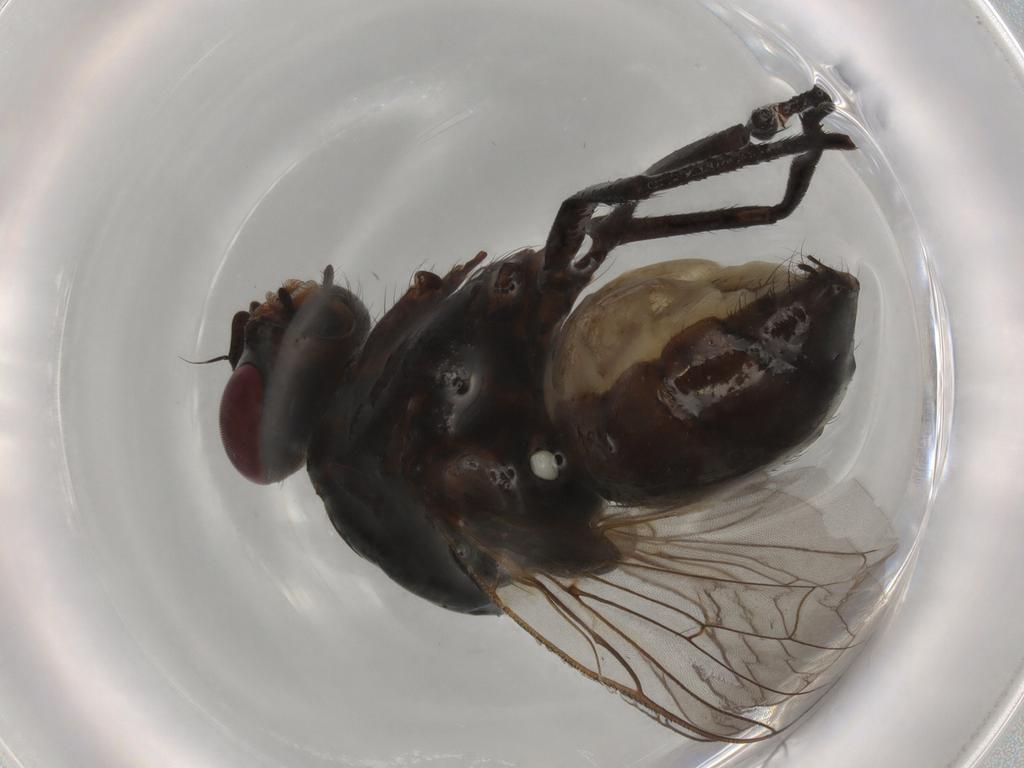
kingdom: Animalia
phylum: Arthropoda
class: Insecta
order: Diptera
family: Anthomyiidae
